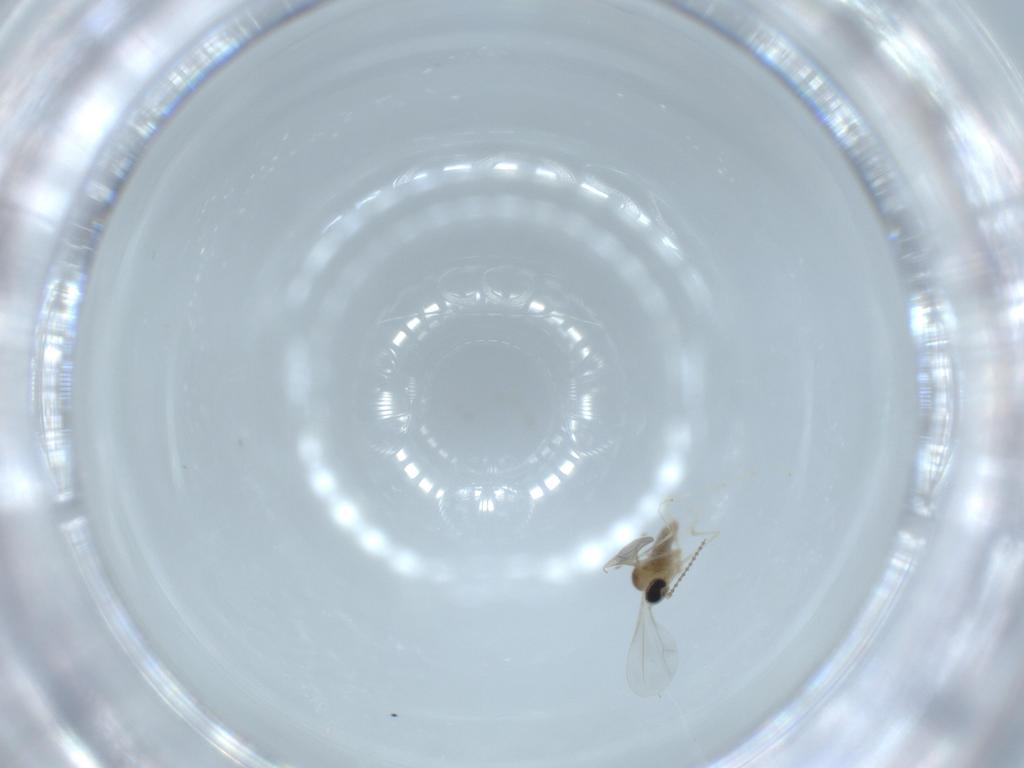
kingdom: Animalia
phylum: Arthropoda
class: Insecta
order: Diptera
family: Cecidomyiidae
